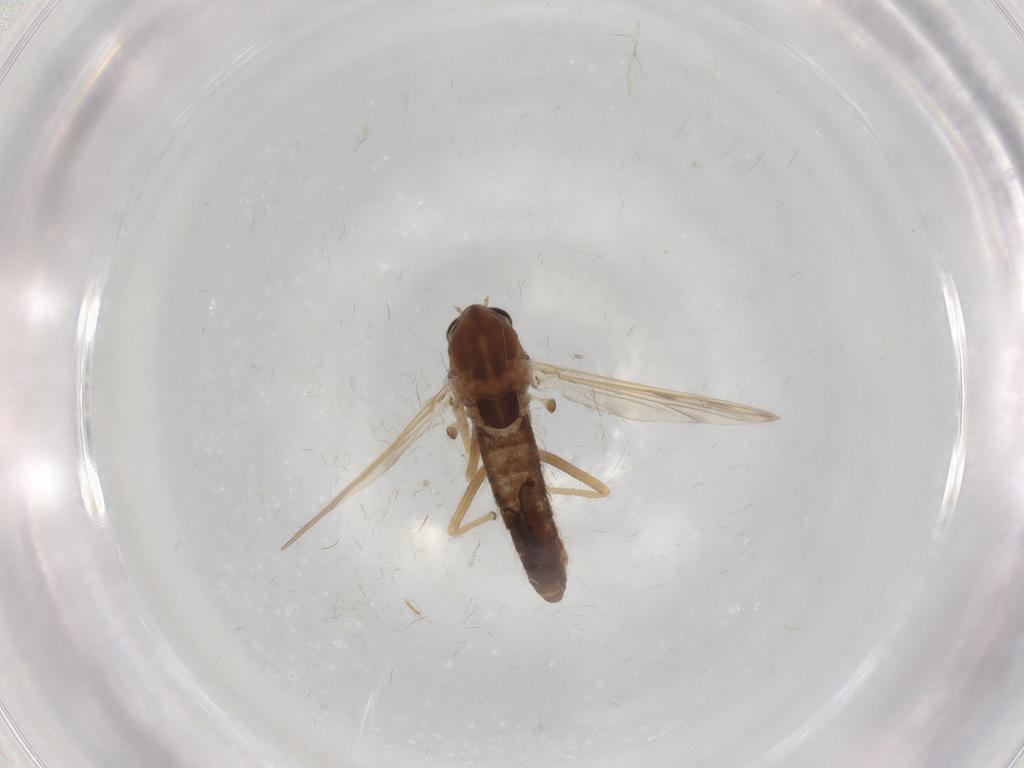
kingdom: Animalia
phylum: Arthropoda
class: Insecta
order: Diptera
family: Chironomidae
